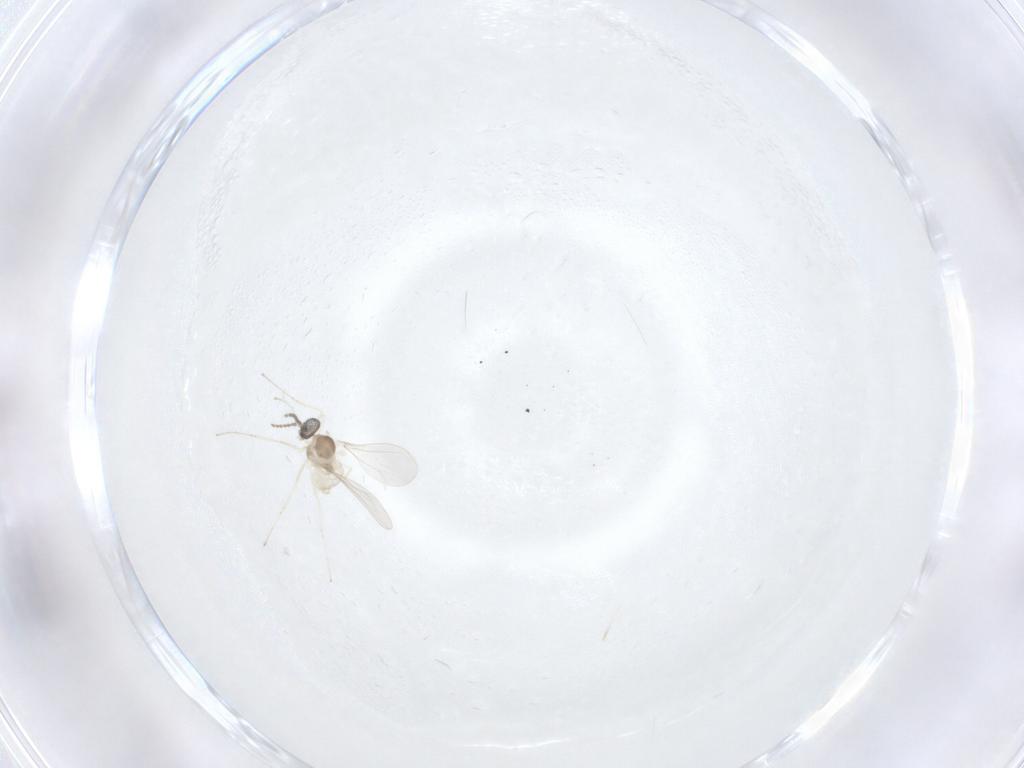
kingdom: Animalia
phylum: Arthropoda
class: Insecta
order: Diptera
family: Cecidomyiidae
